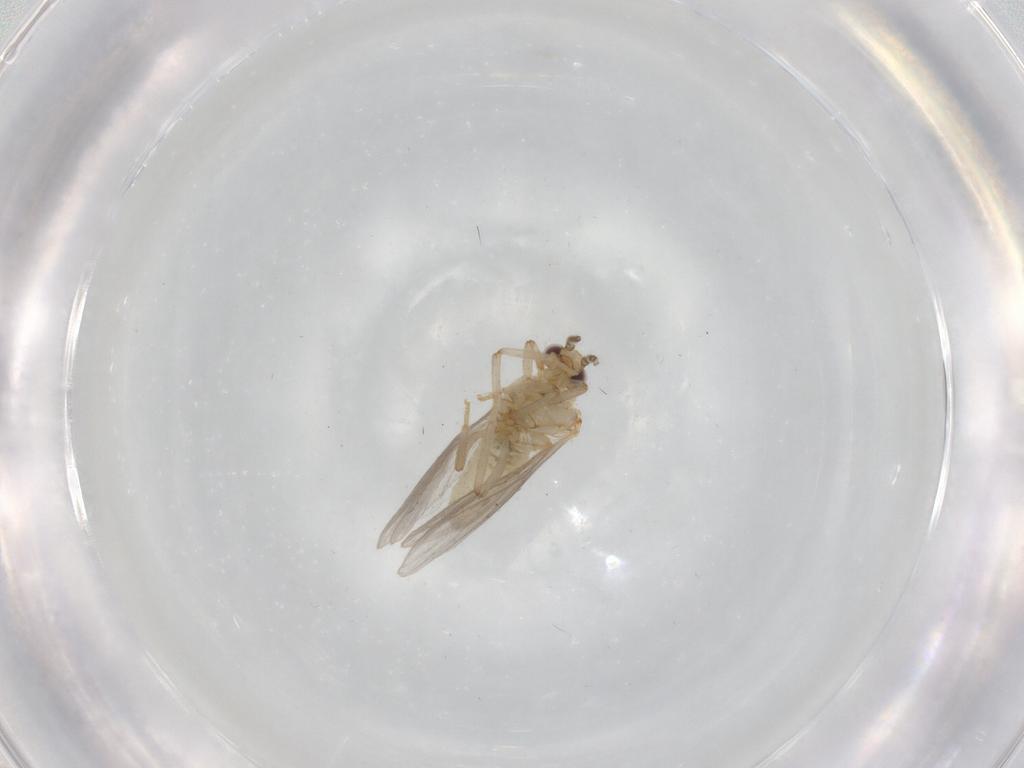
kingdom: Animalia
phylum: Arthropoda
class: Insecta
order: Neuroptera
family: Coniopterygidae
